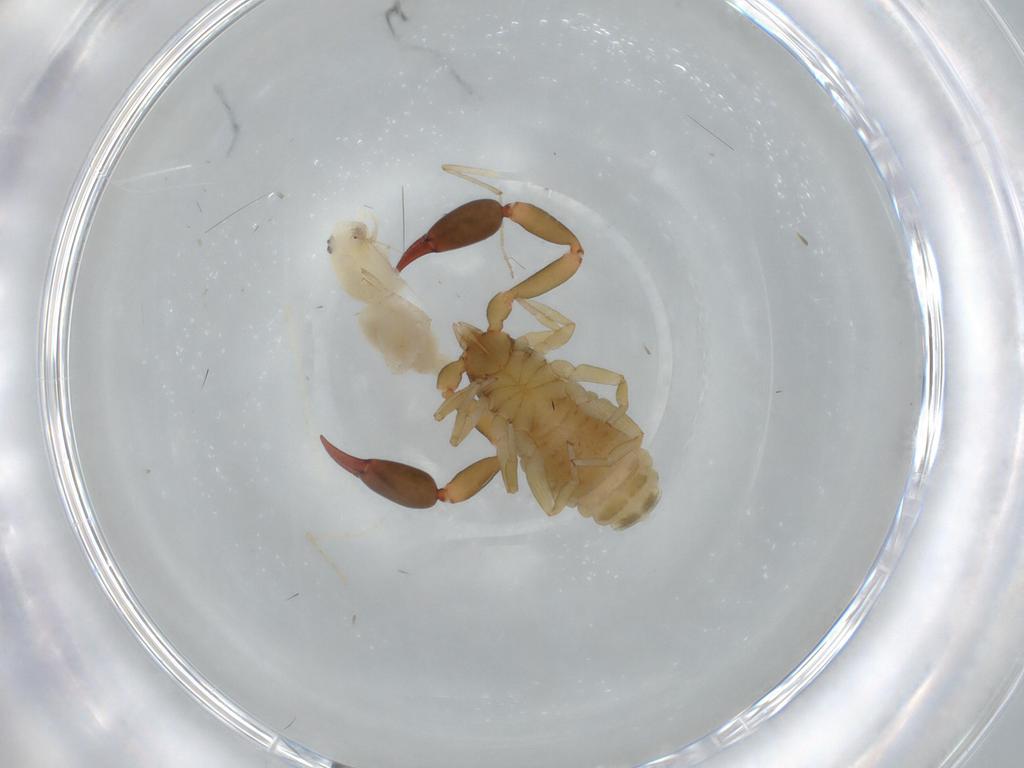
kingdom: Animalia
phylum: Arthropoda
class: Arachnida
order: Araneae
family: Anyphaenidae
